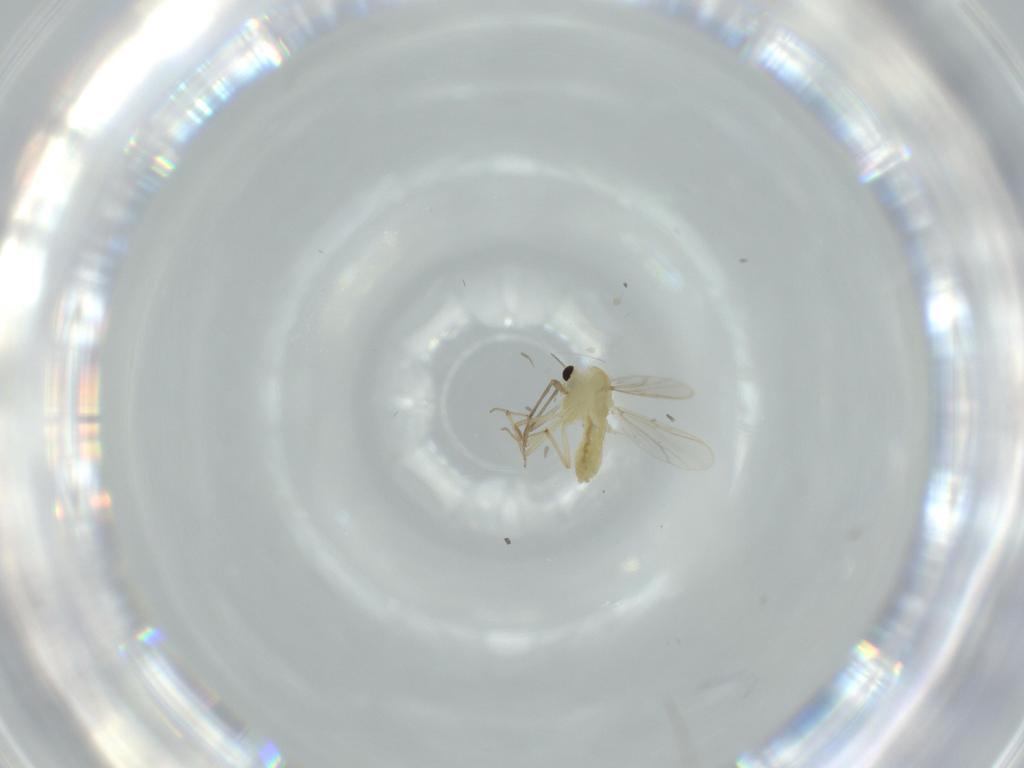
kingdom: Animalia
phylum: Arthropoda
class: Insecta
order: Diptera
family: Chironomidae
